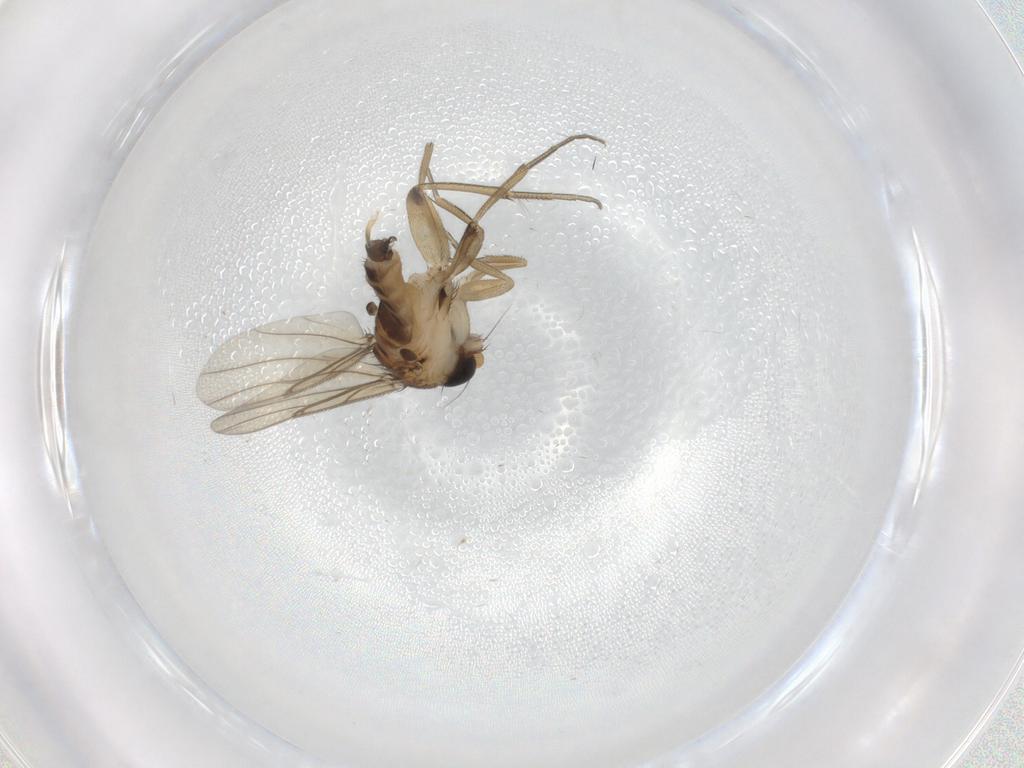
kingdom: Animalia
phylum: Arthropoda
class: Insecta
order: Diptera
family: Phoridae
